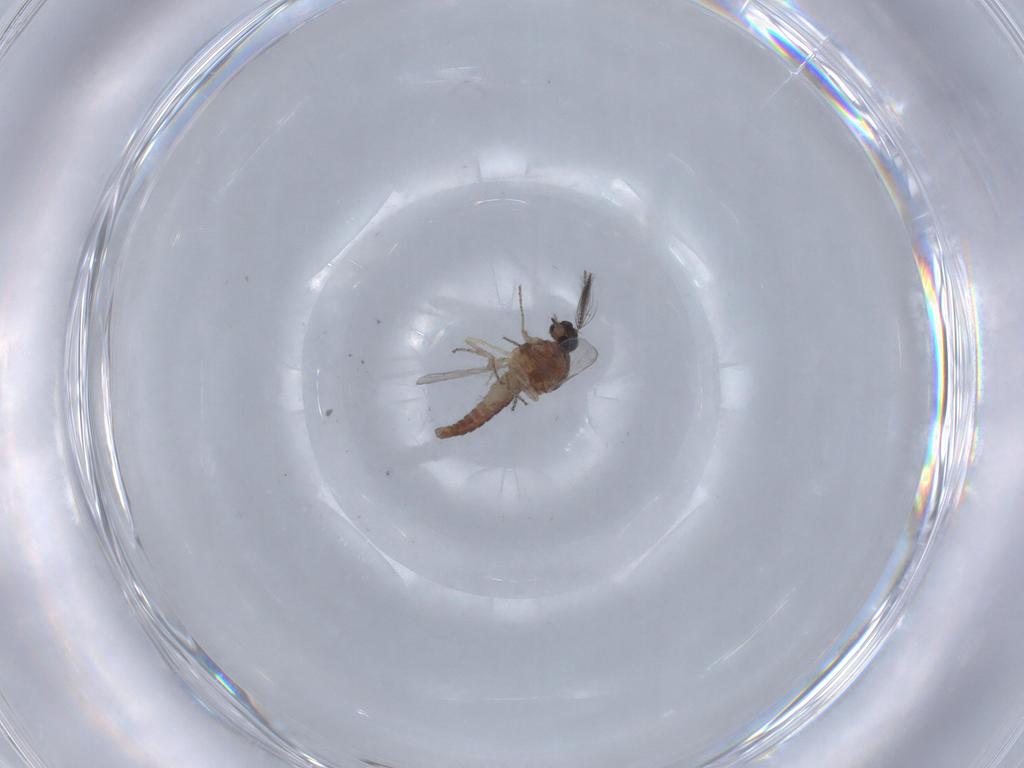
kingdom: Animalia
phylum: Arthropoda
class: Insecta
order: Diptera
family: Ceratopogonidae
